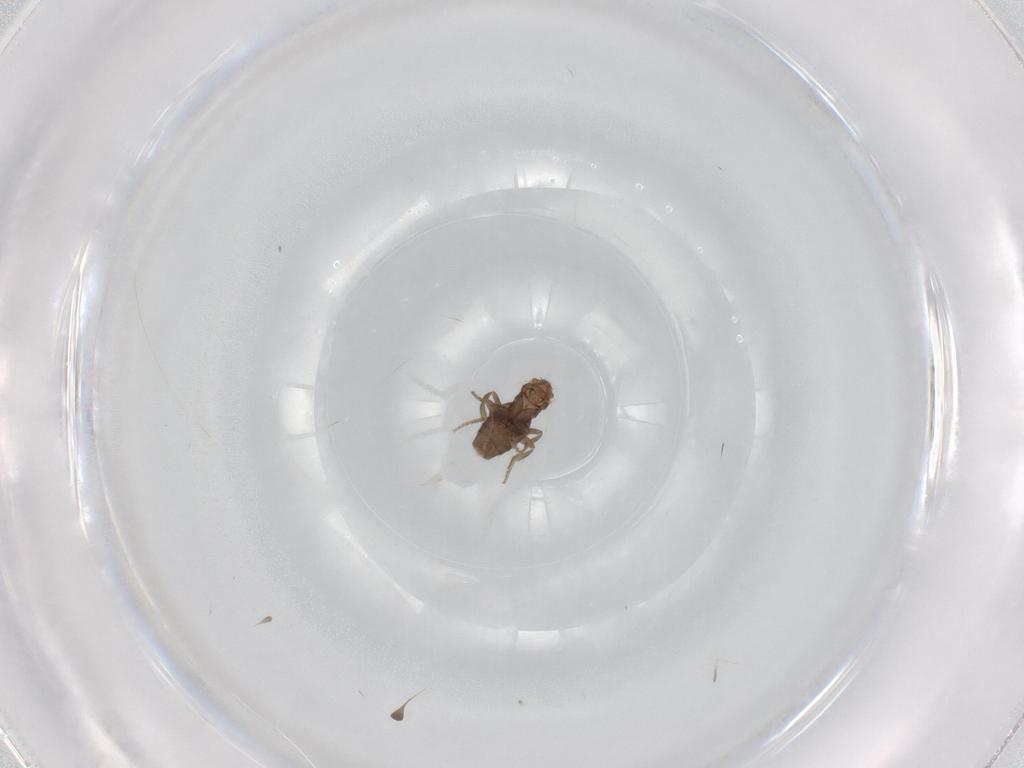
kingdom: Animalia
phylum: Arthropoda
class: Insecta
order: Diptera
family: Phoridae
